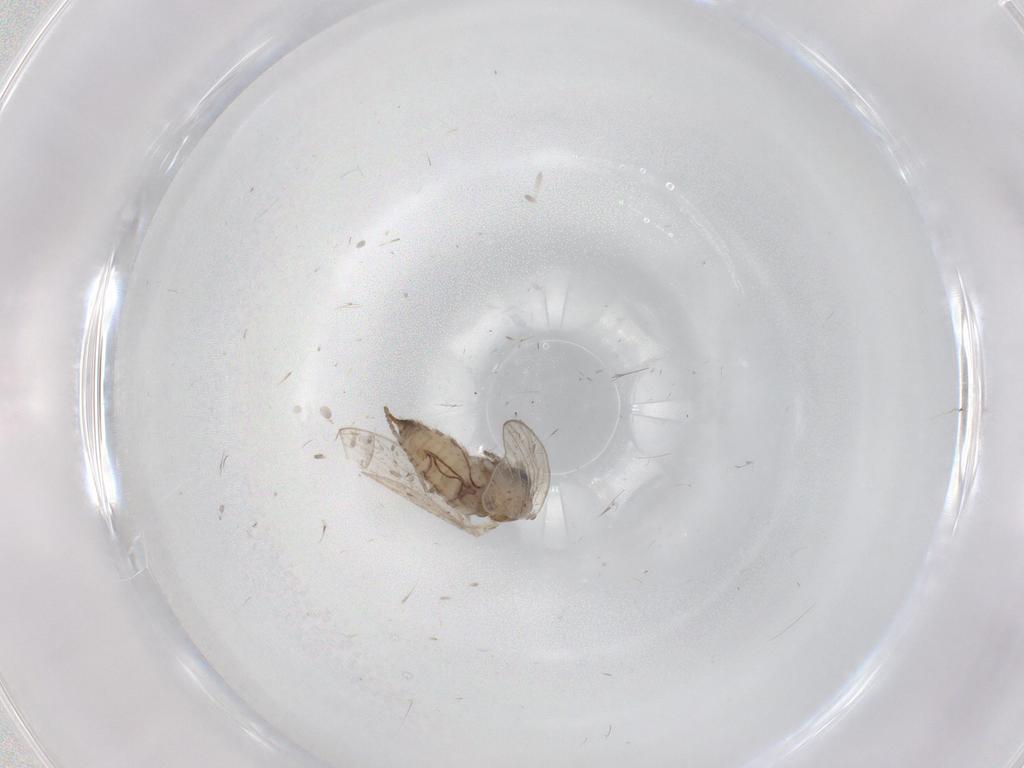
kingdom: Animalia
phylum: Arthropoda
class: Insecta
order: Diptera
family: Psychodidae
